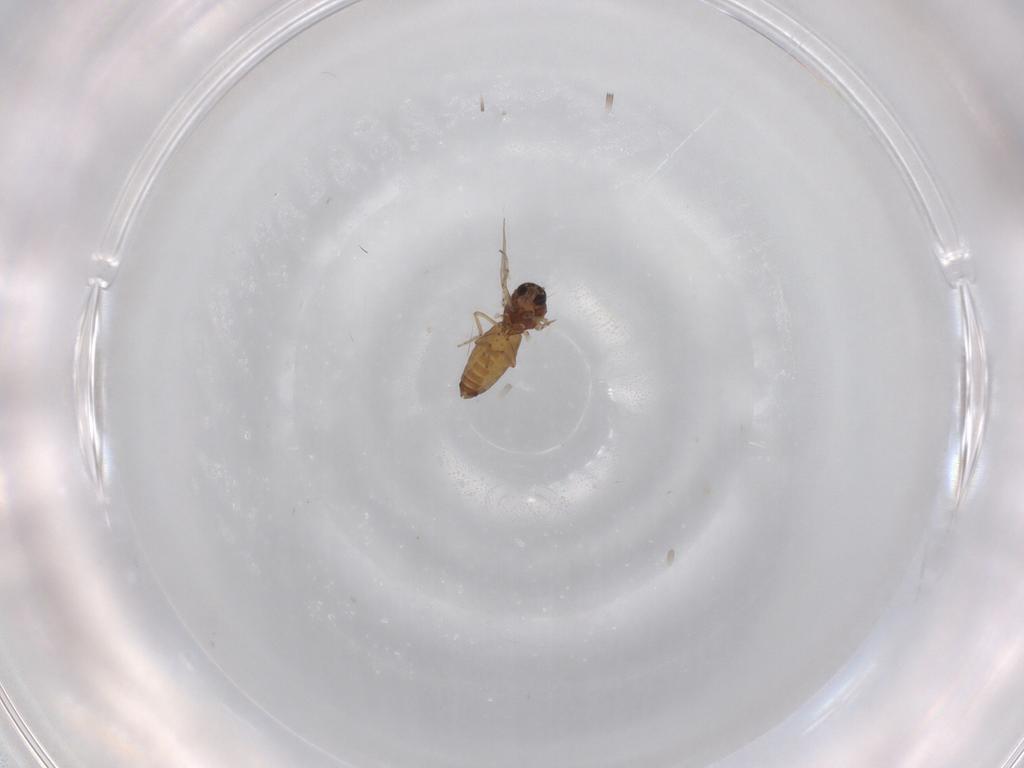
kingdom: Animalia
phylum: Arthropoda
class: Insecta
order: Diptera
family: Ceratopogonidae
